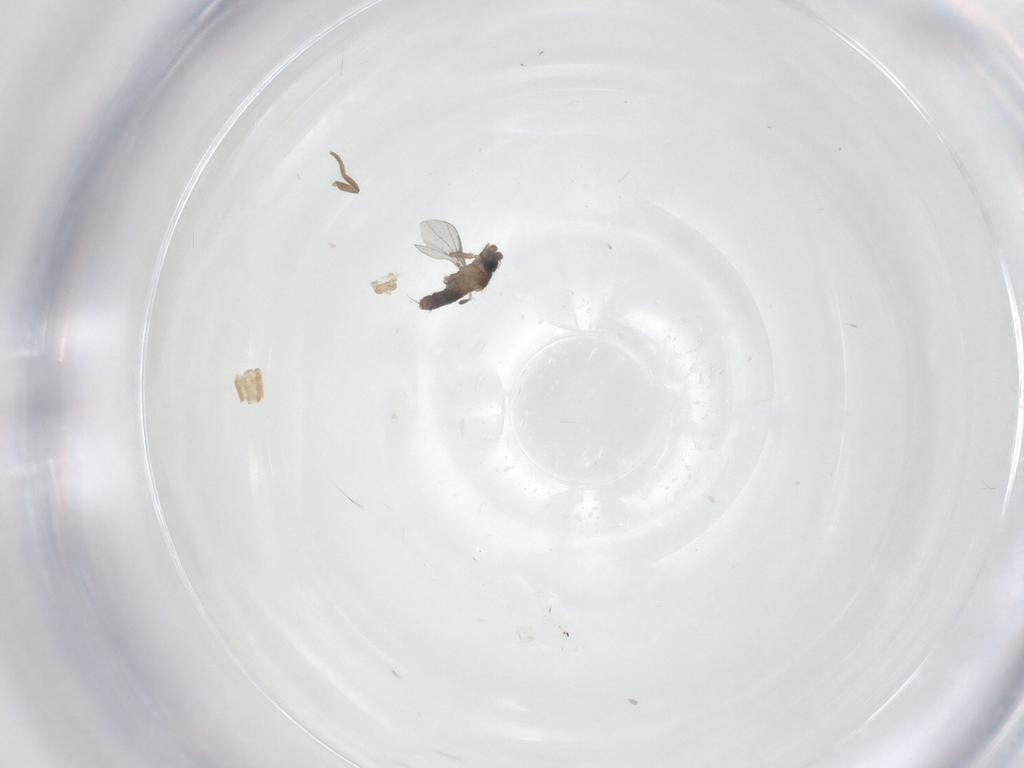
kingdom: Animalia
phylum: Arthropoda
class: Insecta
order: Diptera
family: Phoridae
